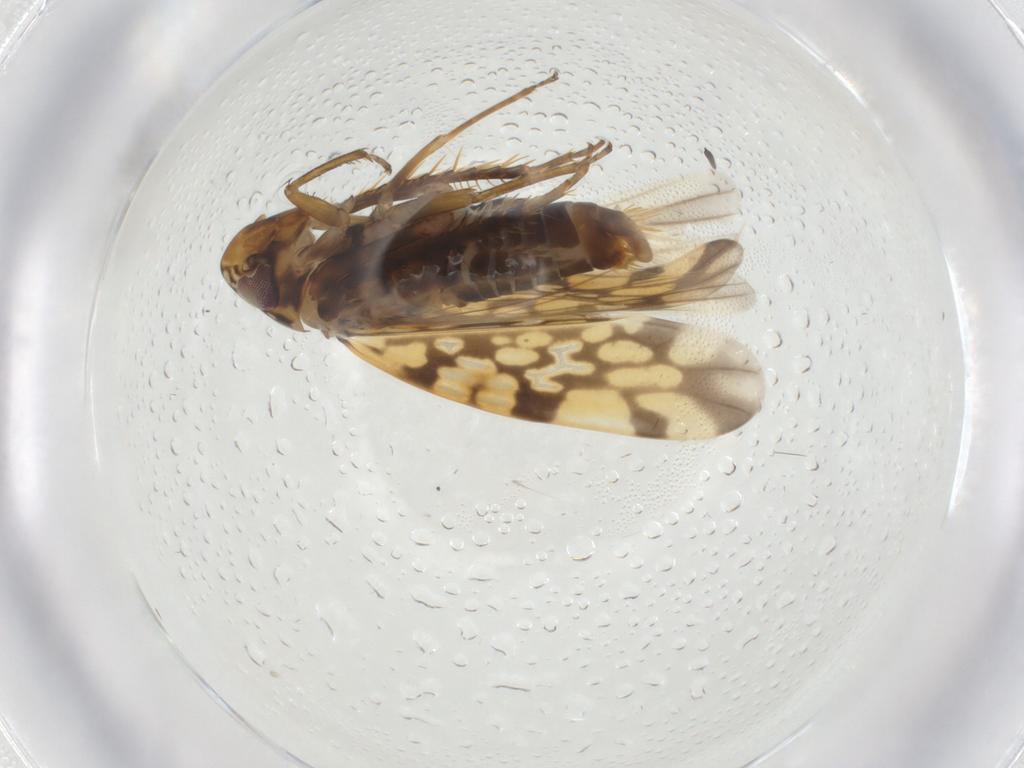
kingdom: Animalia
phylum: Arthropoda
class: Insecta
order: Hemiptera
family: Cicadellidae
